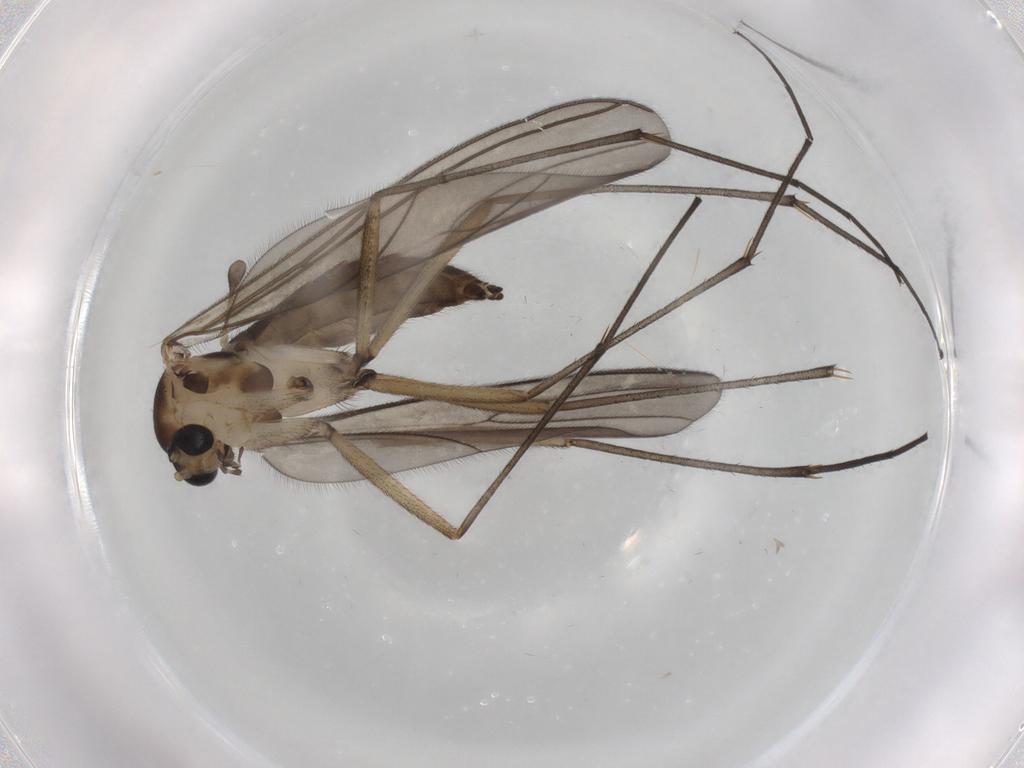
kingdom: Animalia
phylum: Arthropoda
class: Insecta
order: Diptera
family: Sciaridae
